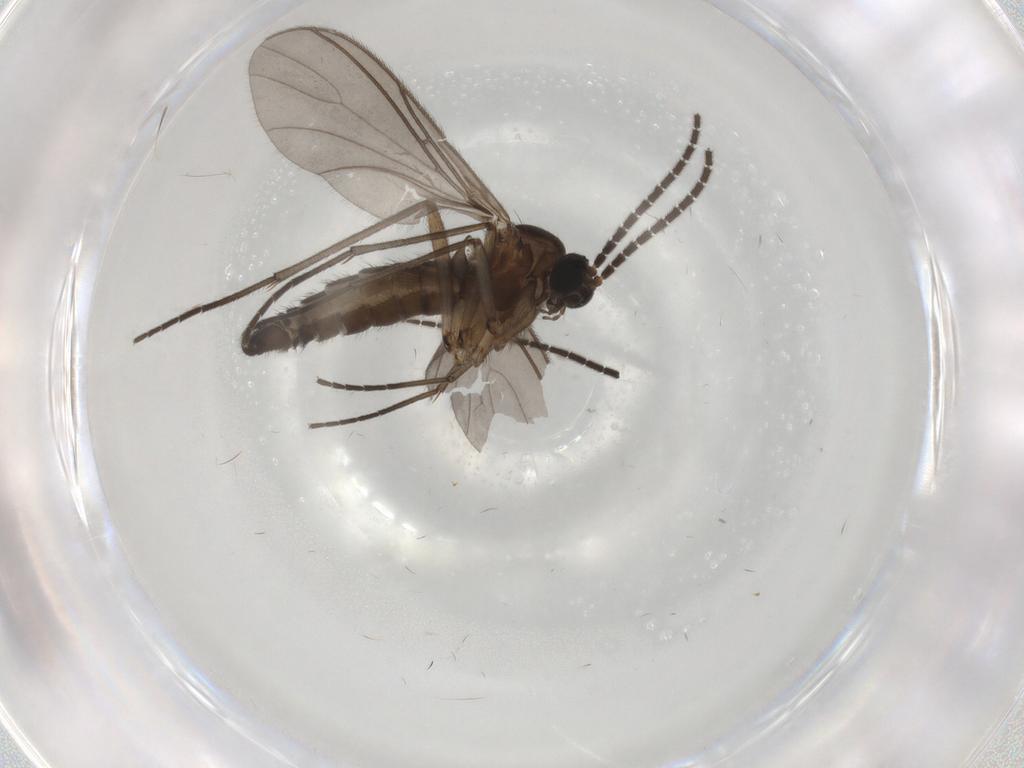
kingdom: Animalia
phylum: Arthropoda
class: Insecta
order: Diptera
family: Sciaridae
